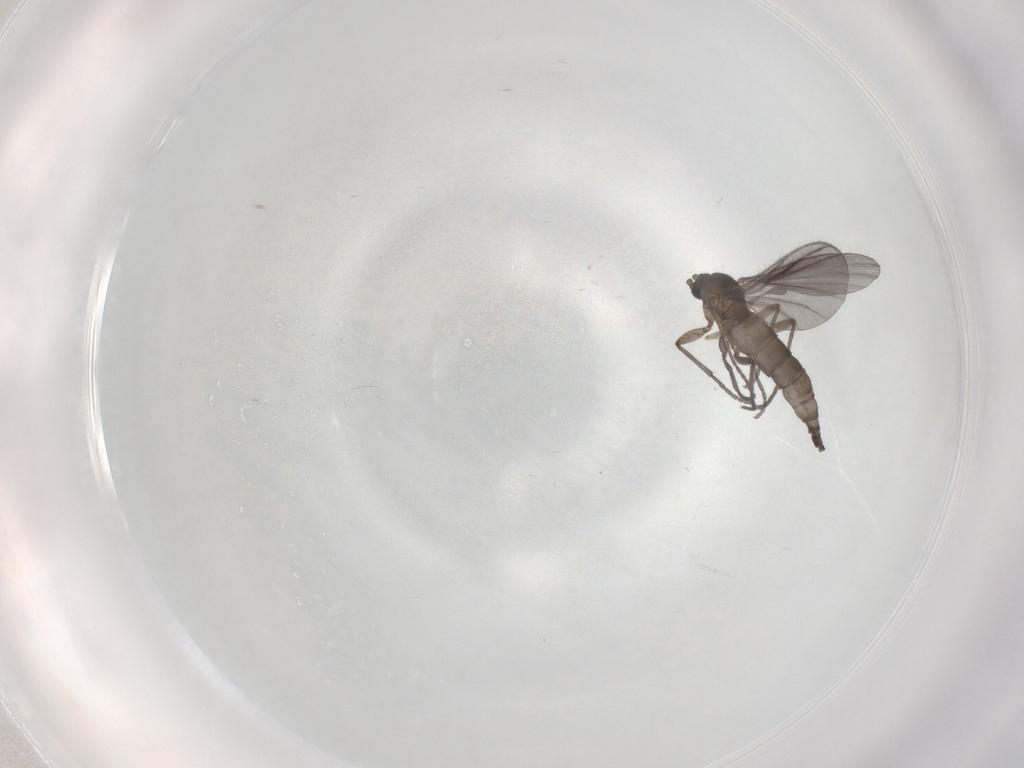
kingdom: Animalia
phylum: Arthropoda
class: Insecta
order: Diptera
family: Sciaridae
